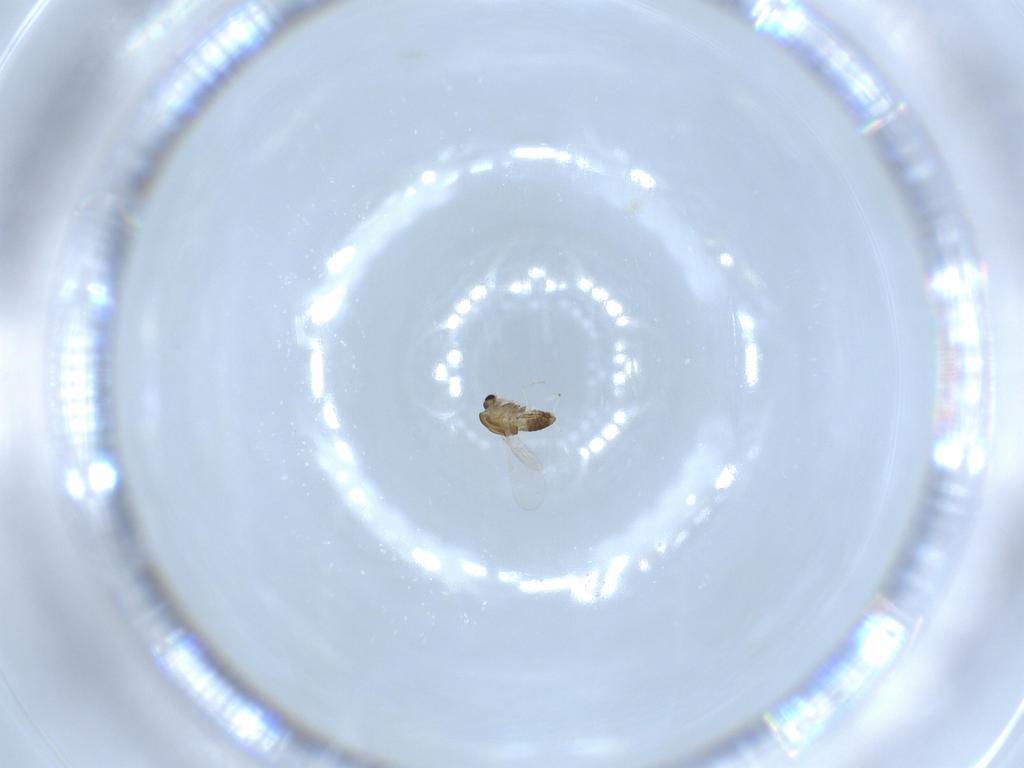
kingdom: Animalia
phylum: Arthropoda
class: Insecta
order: Diptera
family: Chironomidae
